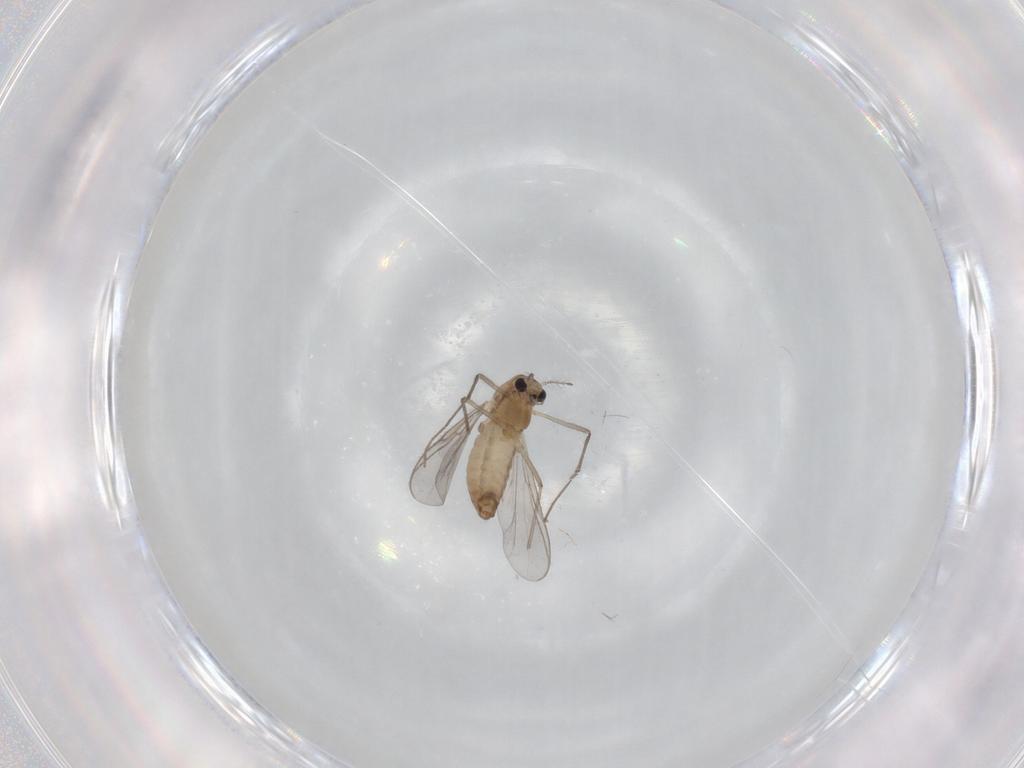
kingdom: Animalia
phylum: Arthropoda
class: Insecta
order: Diptera
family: Chironomidae
